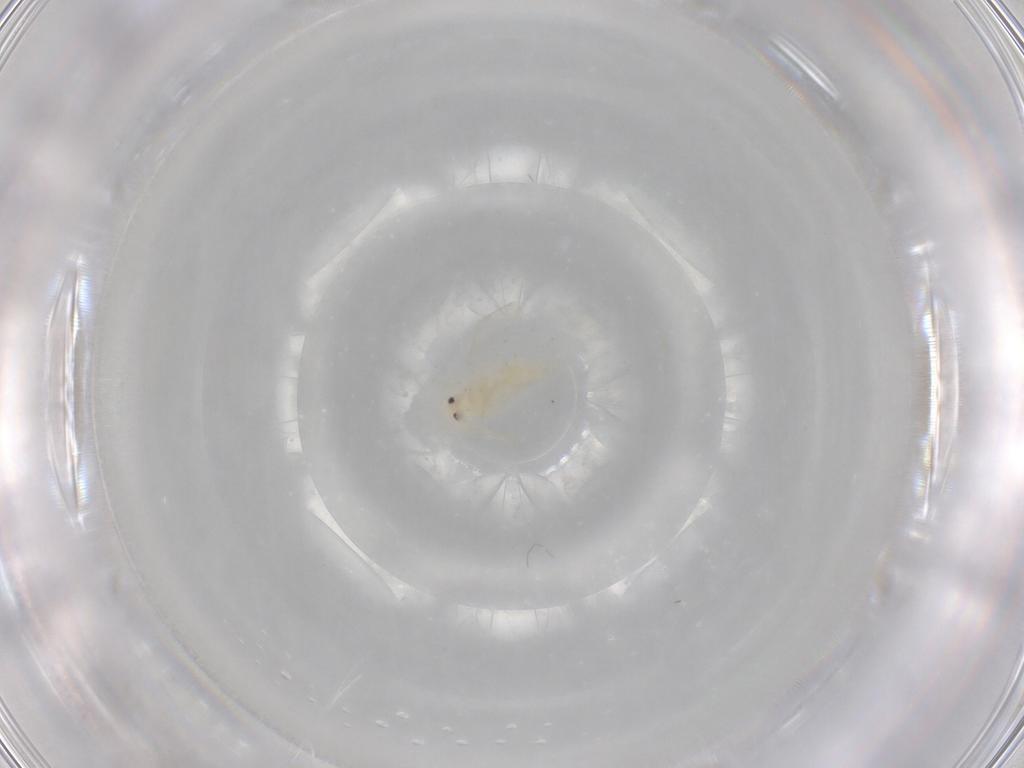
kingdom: Animalia
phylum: Arthropoda
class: Insecta
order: Hemiptera
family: Aleyrodidae
